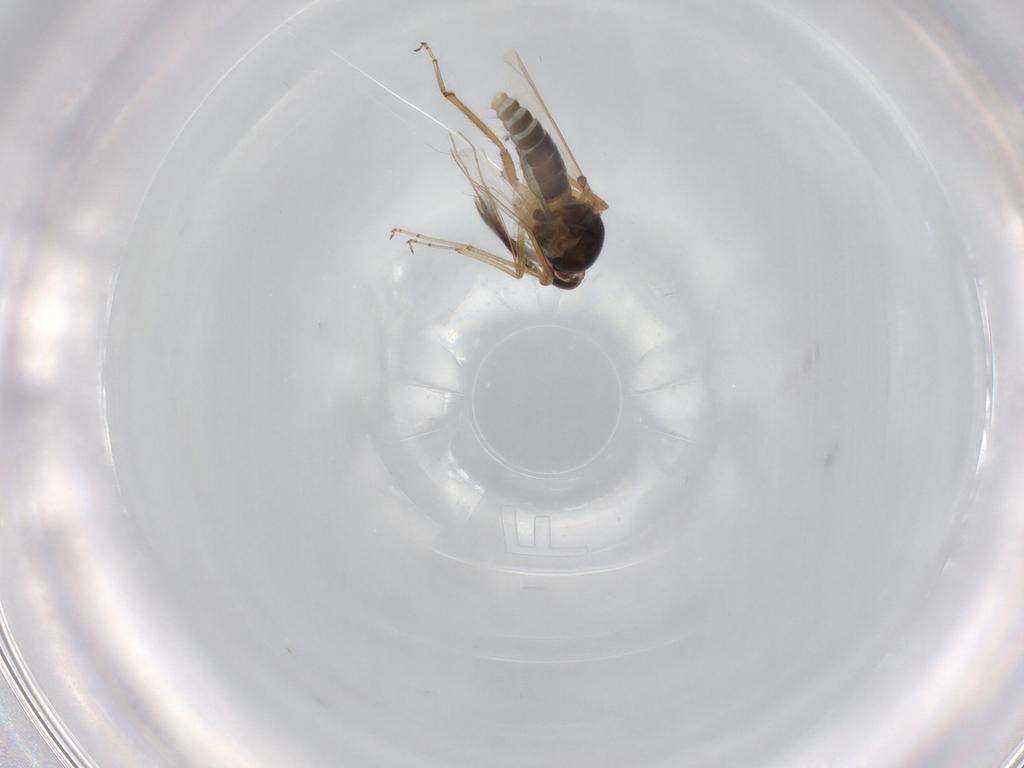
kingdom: Animalia
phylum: Arthropoda
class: Insecta
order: Diptera
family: Ceratopogonidae
